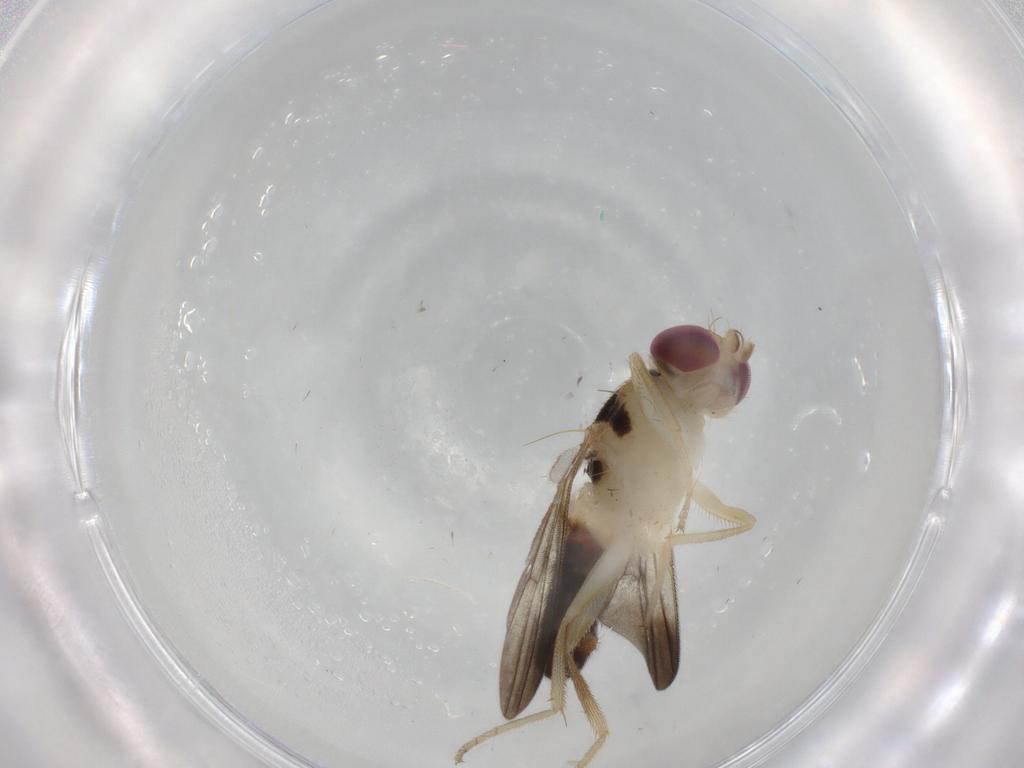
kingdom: Animalia
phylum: Arthropoda
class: Insecta
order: Diptera
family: Clusiidae
